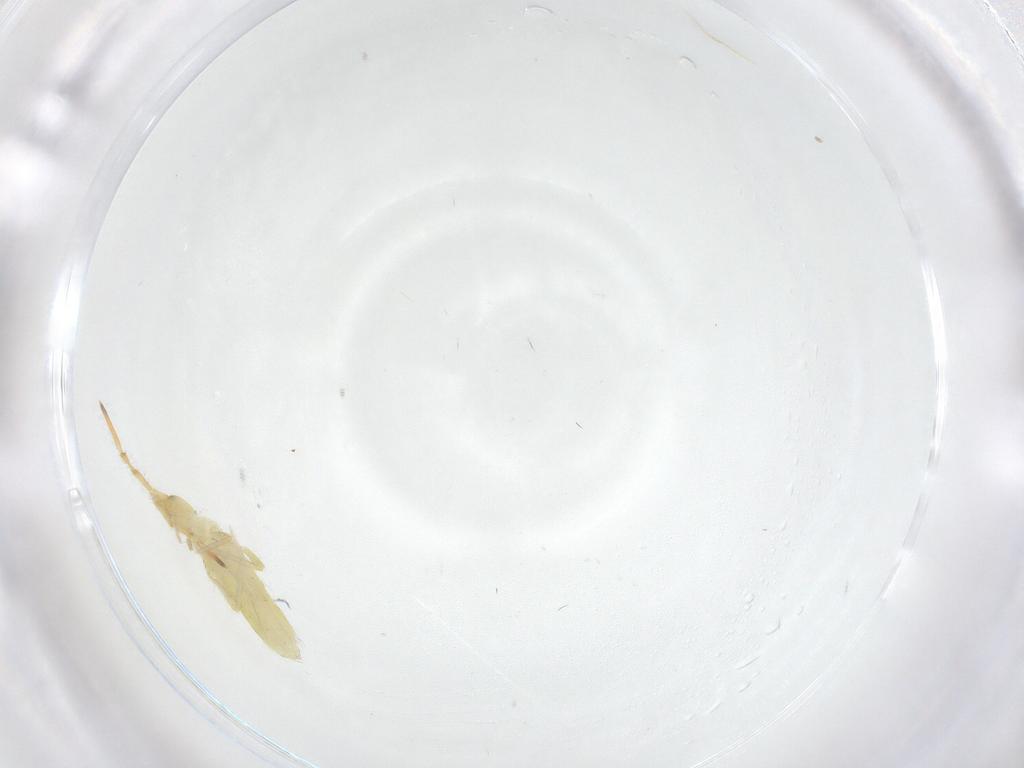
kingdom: Animalia
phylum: Arthropoda
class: Collembola
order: Entomobryomorpha
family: Entomobryidae
